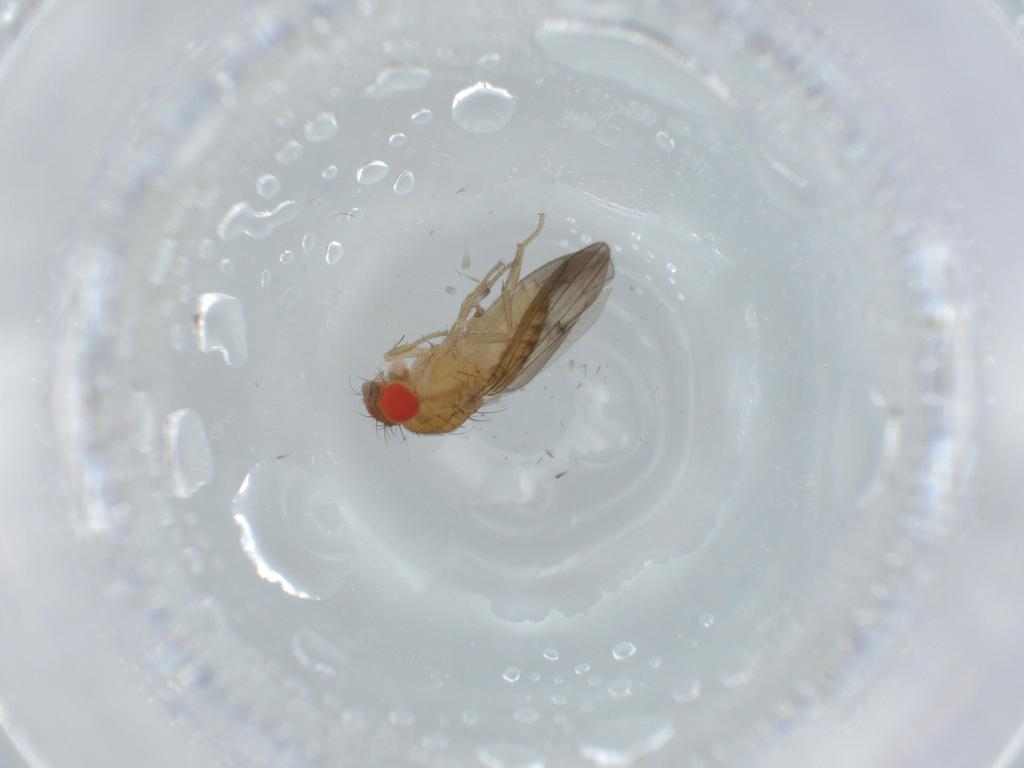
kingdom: Animalia
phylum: Arthropoda
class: Insecta
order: Diptera
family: Drosophilidae
